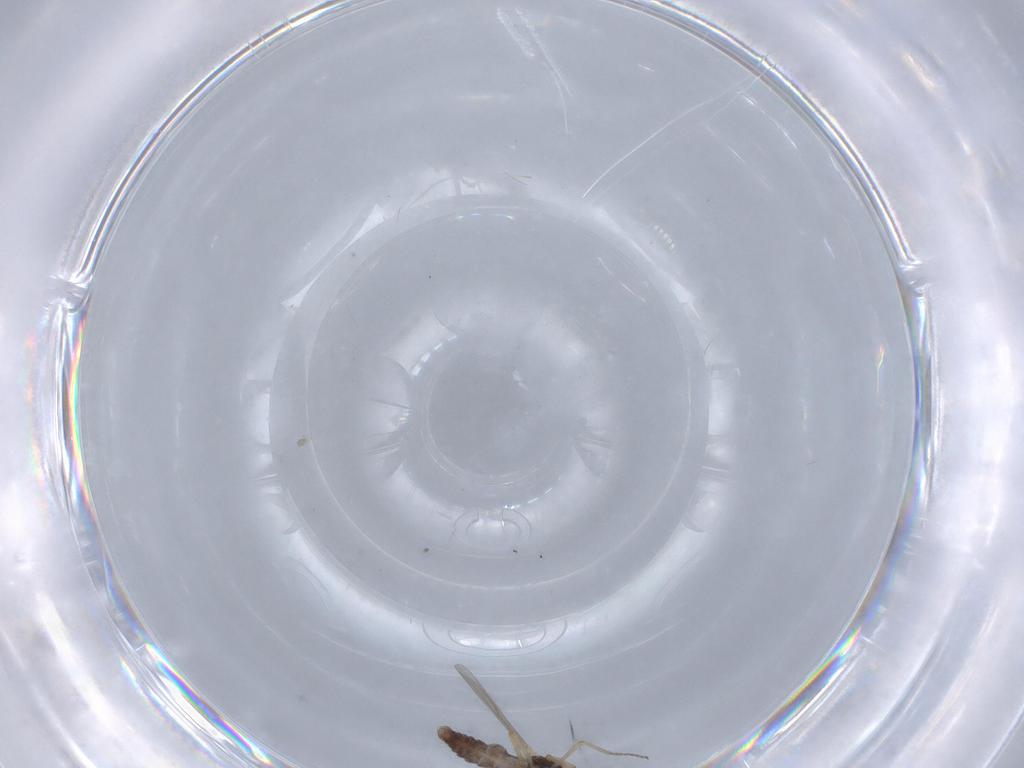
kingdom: Animalia
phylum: Arthropoda
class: Insecta
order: Diptera
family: Ceratopogonidae
